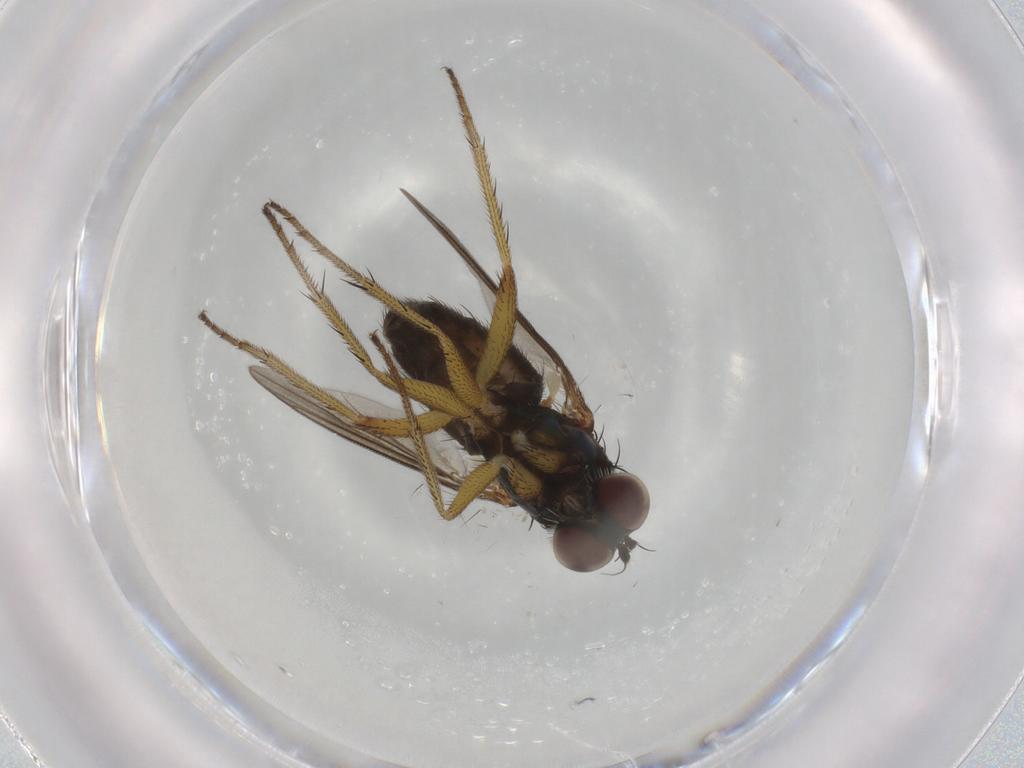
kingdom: Animalia
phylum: Arthropoda
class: Insecta
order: Diptera
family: Dolichopodidae
